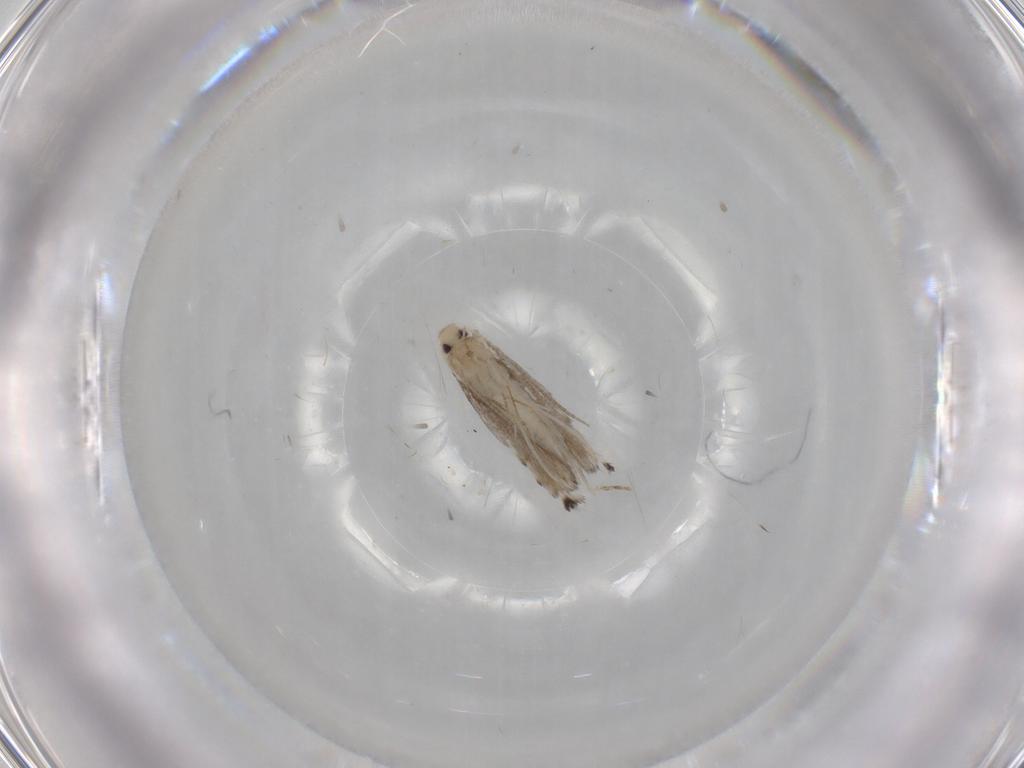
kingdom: Animalia
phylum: Arthropoda
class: Insecta
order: Lepidoptera
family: Gracillariidae
